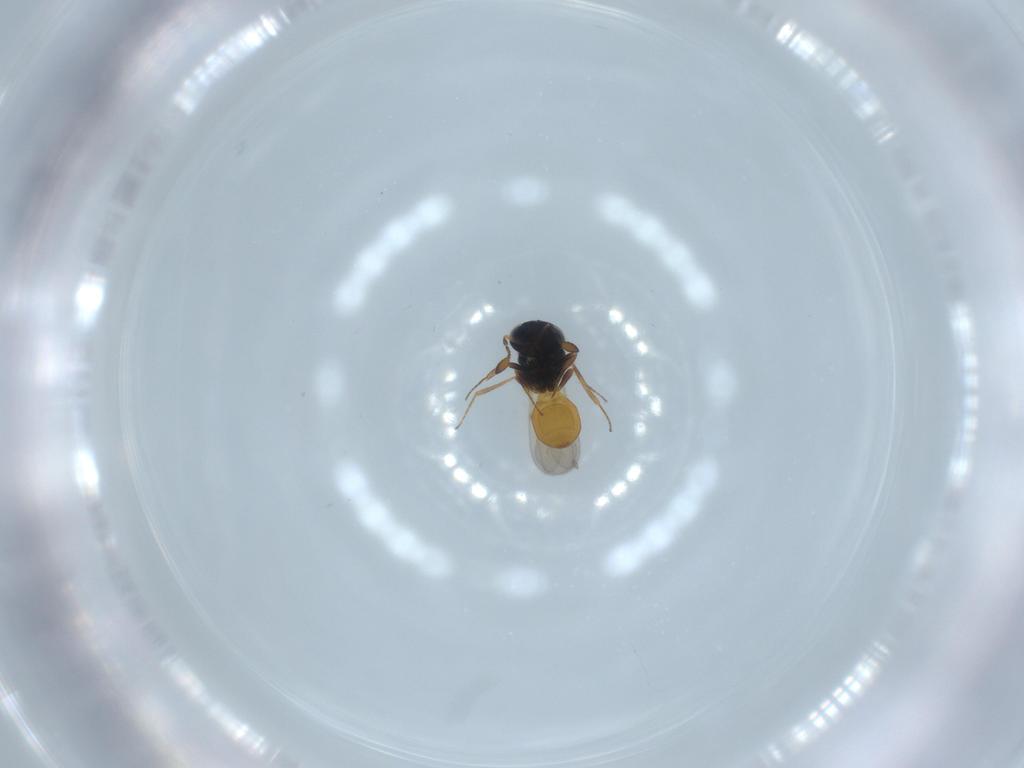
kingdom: Animalia
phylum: Arthropoda
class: Insecta
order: Hymenoptera
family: Scelionidae
